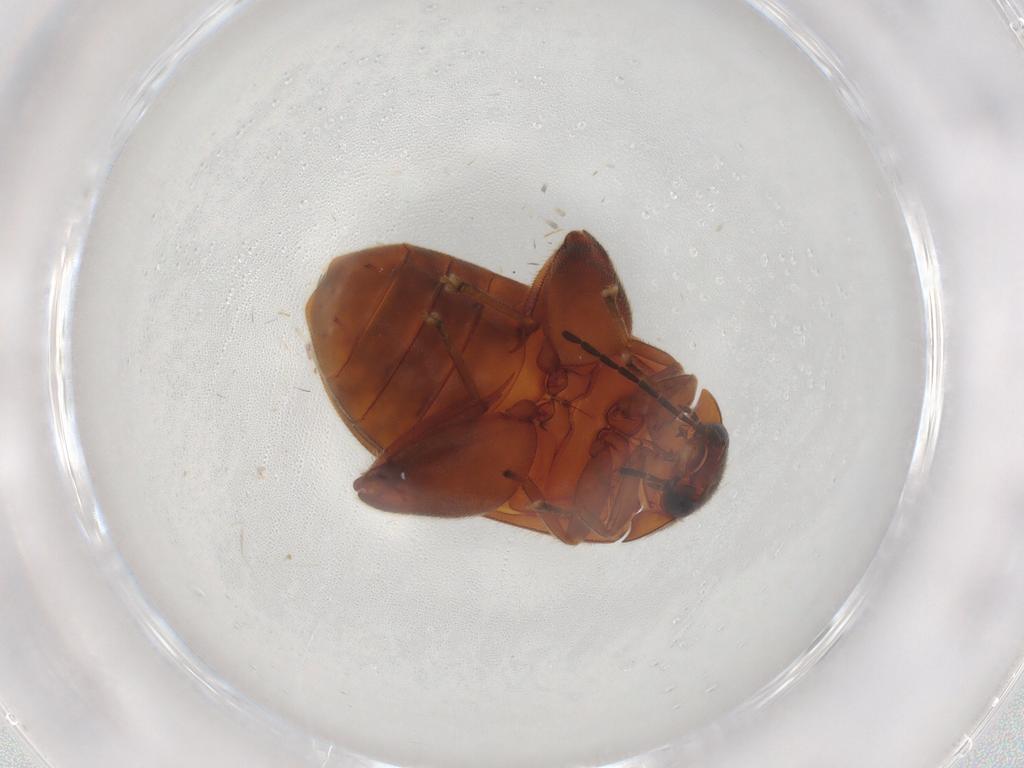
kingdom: Animalia
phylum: Arthropoda
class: Insecta
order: Coleoptera
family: Scirtidae
